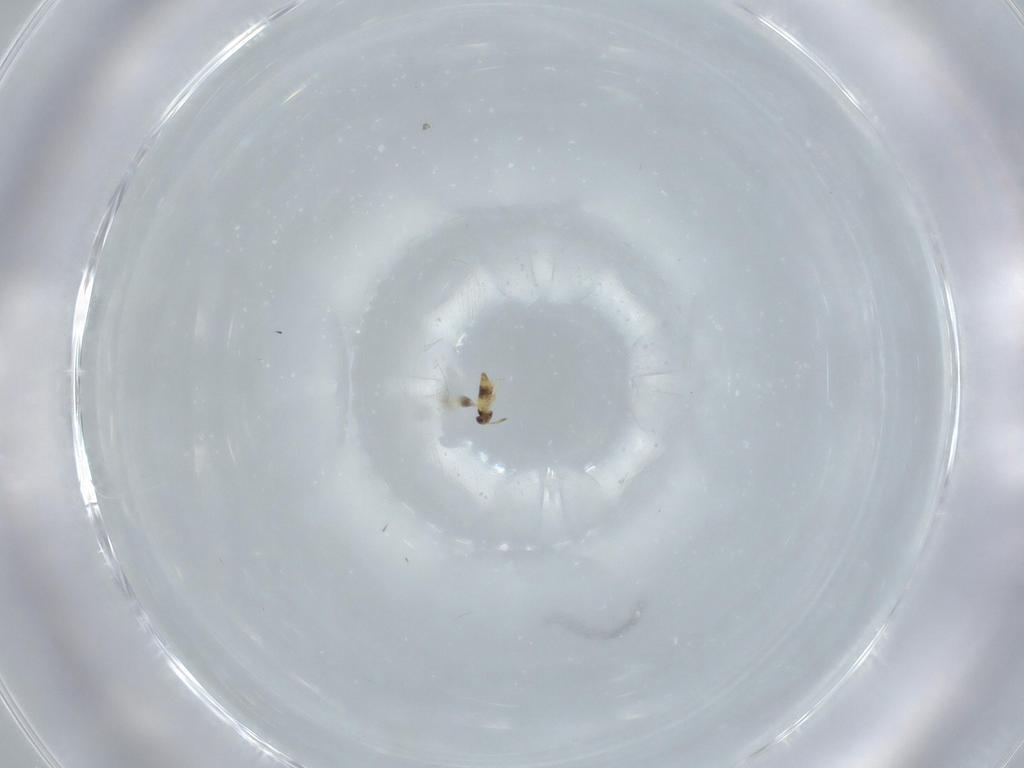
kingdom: Animalia
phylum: Arthropoda
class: Insecta
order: Hymenoptera
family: Signiphoridae
